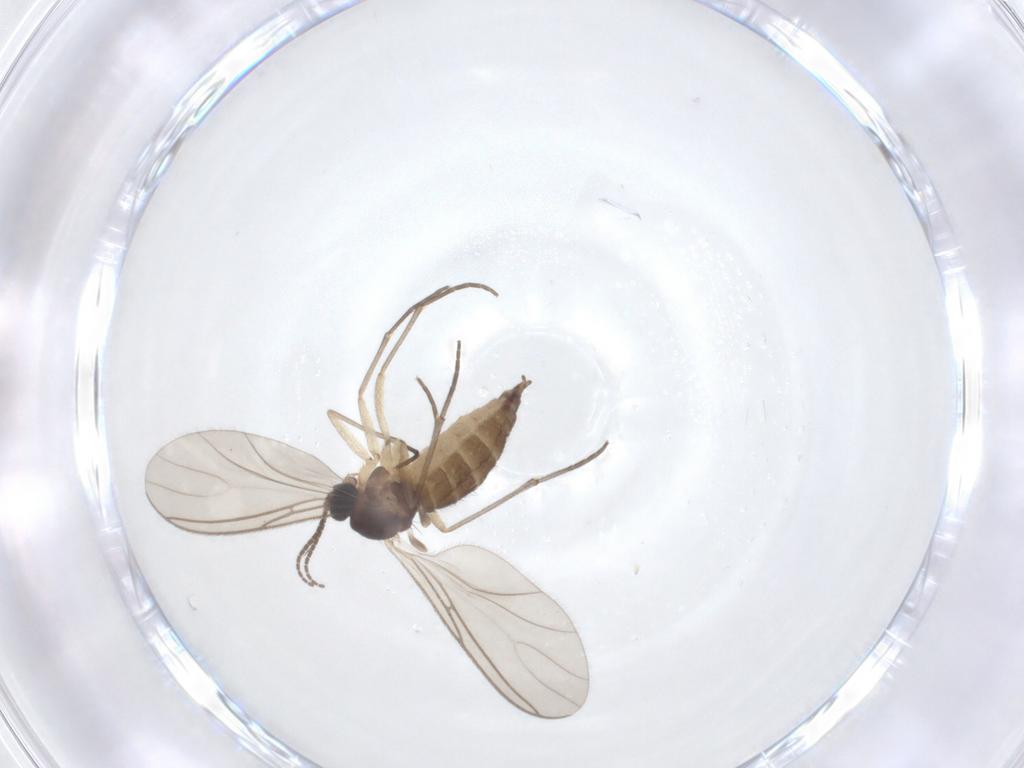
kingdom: Animalia
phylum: Arthropoda
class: Insecta
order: Diptera
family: Sciaridae
